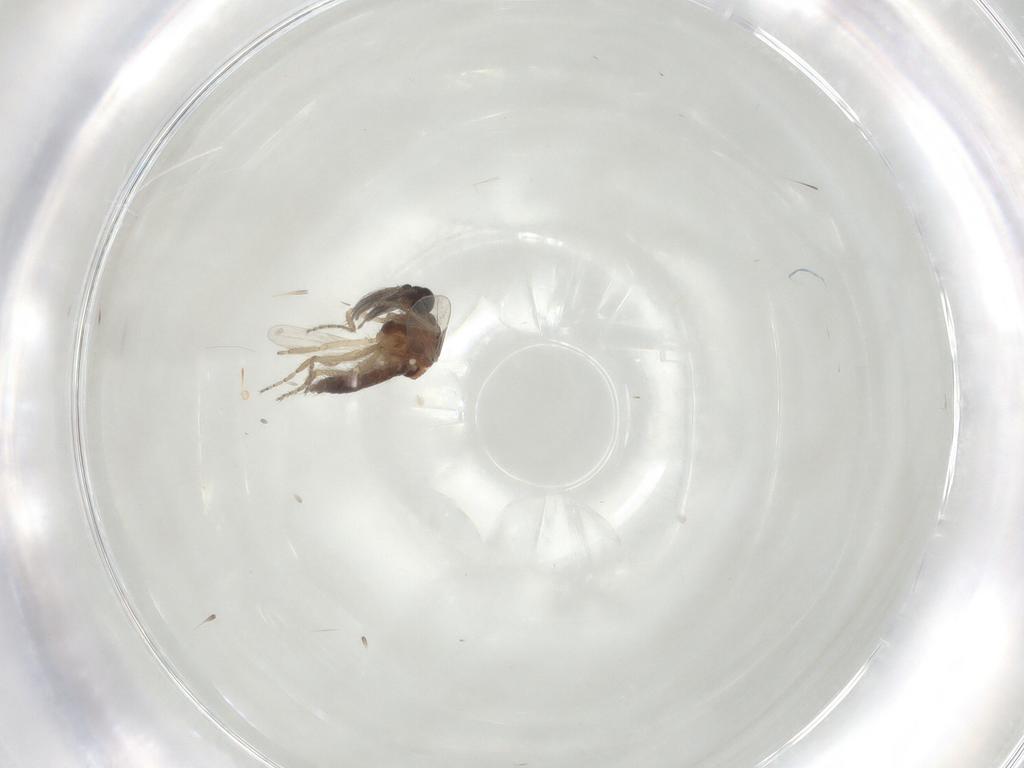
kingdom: Animalia
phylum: Arthropoda
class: Insecta
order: Diptera
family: Ceratopogonidae
